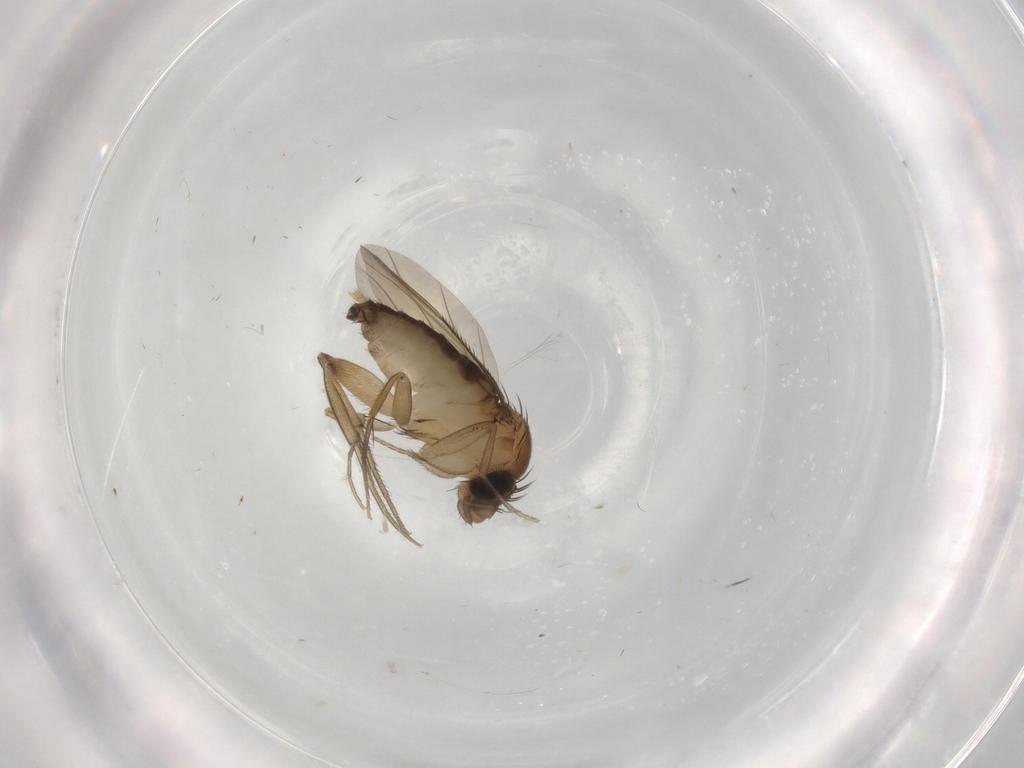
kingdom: Animalia
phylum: Arthropoda
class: Insecta
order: Diptera
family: Phoridae
